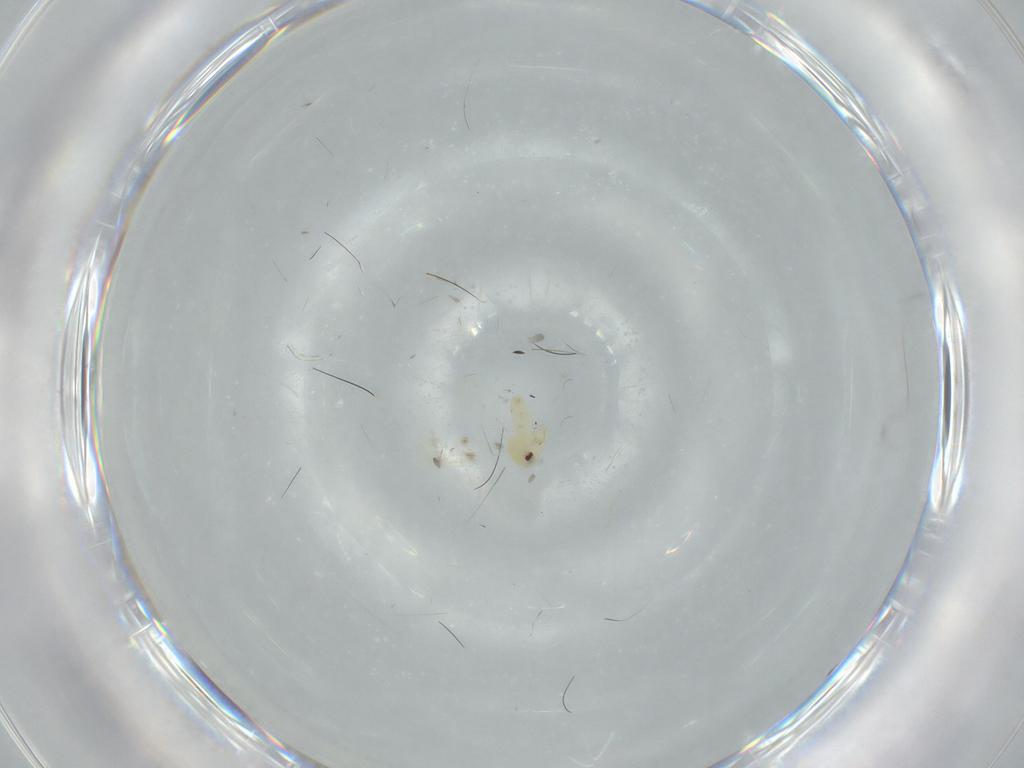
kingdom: Animalia
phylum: Arthropoda
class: Insecta
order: Hemiptera
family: Aleyrodidae
